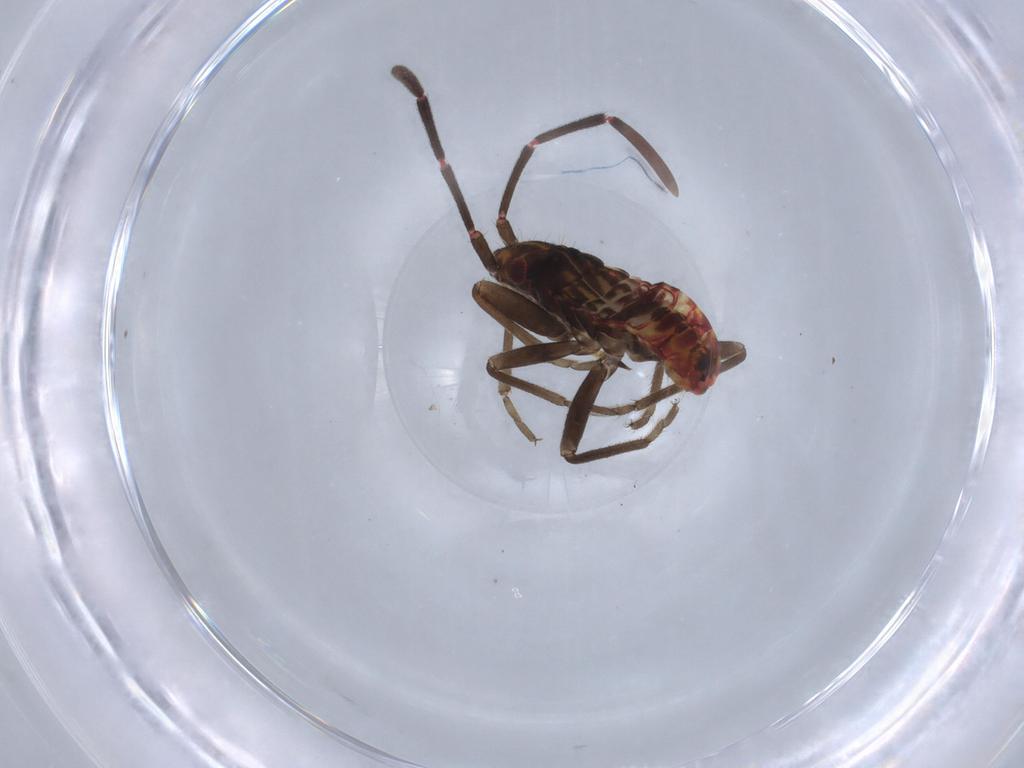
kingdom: Animalia
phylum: Arthropoda
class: Insecta
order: Hemiptera
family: Rhyparochromidae
